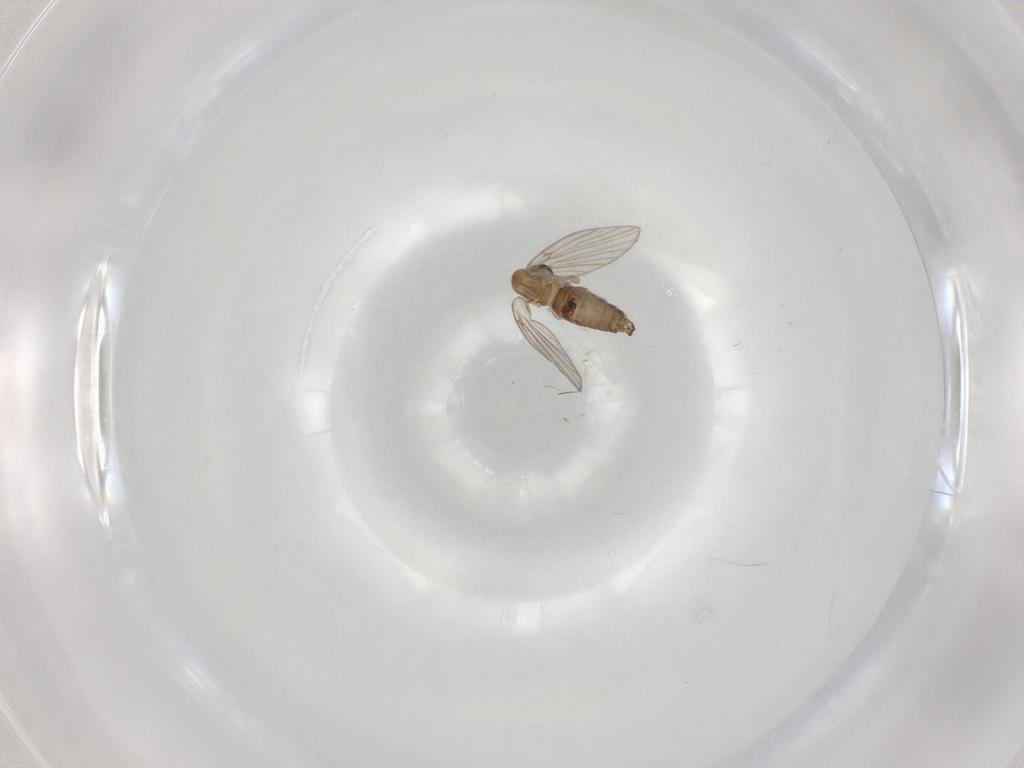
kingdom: Animalia
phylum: Arthropoda
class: Insecta
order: Diptera
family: Psychodidae
